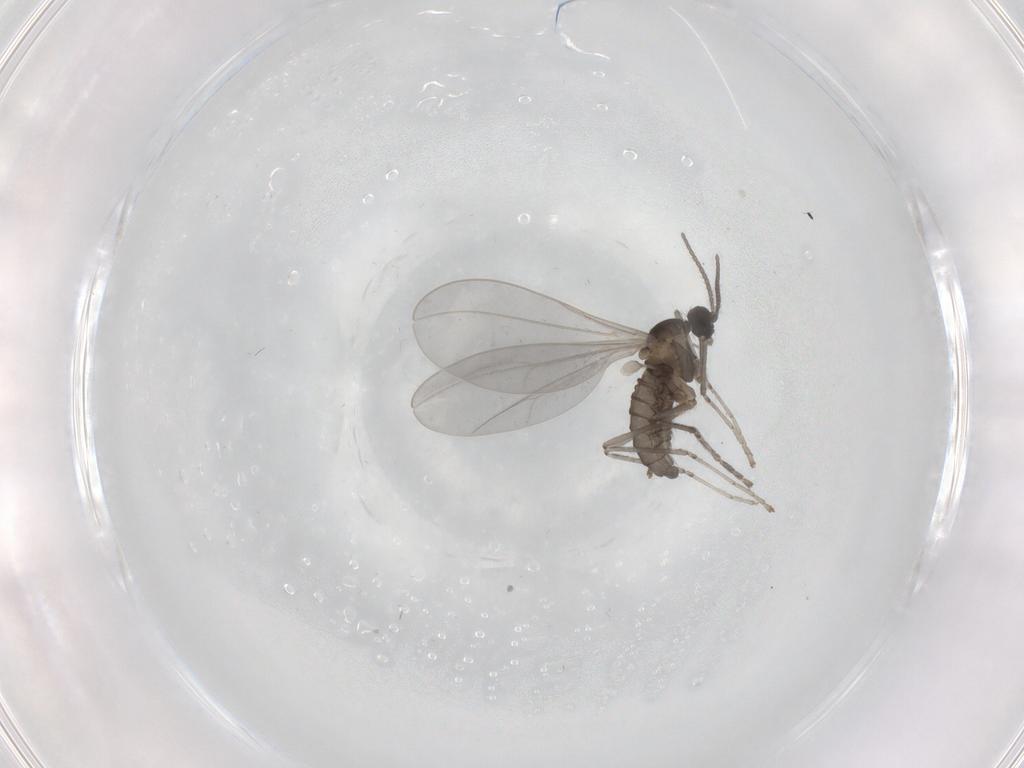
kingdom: Animalia
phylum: Arthropoda
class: Insecta
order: Diptera
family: Cecidomyiidae
